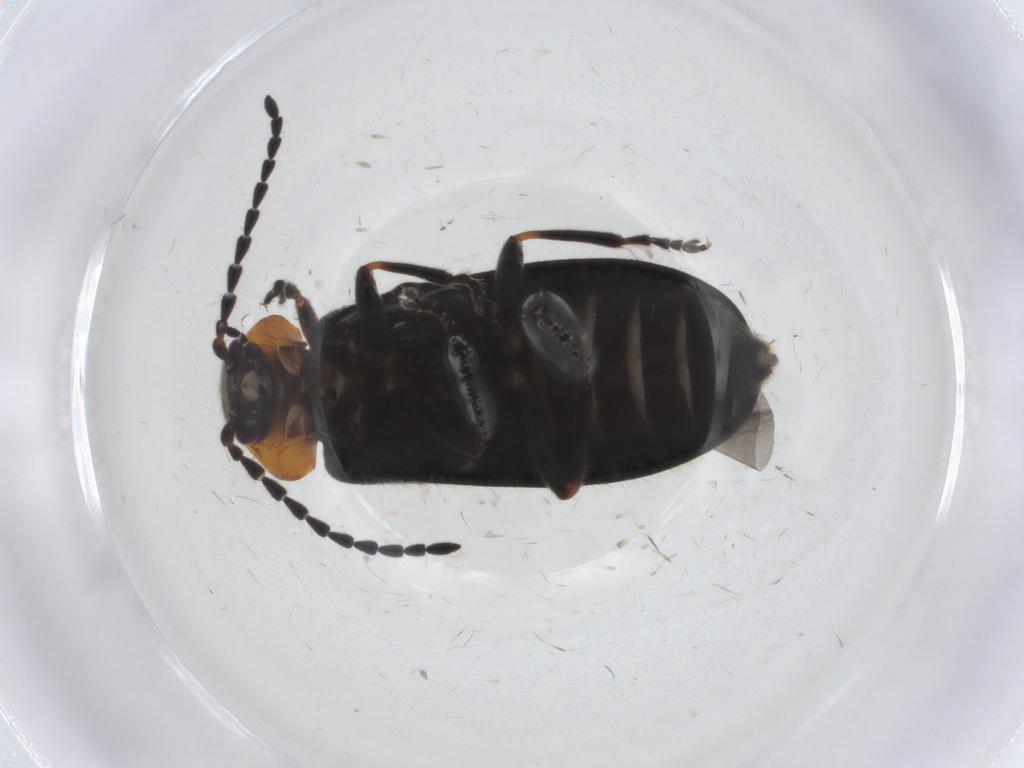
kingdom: Animalia
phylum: Arthropoda
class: Insecta
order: Coleoptera
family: Cantharidae
